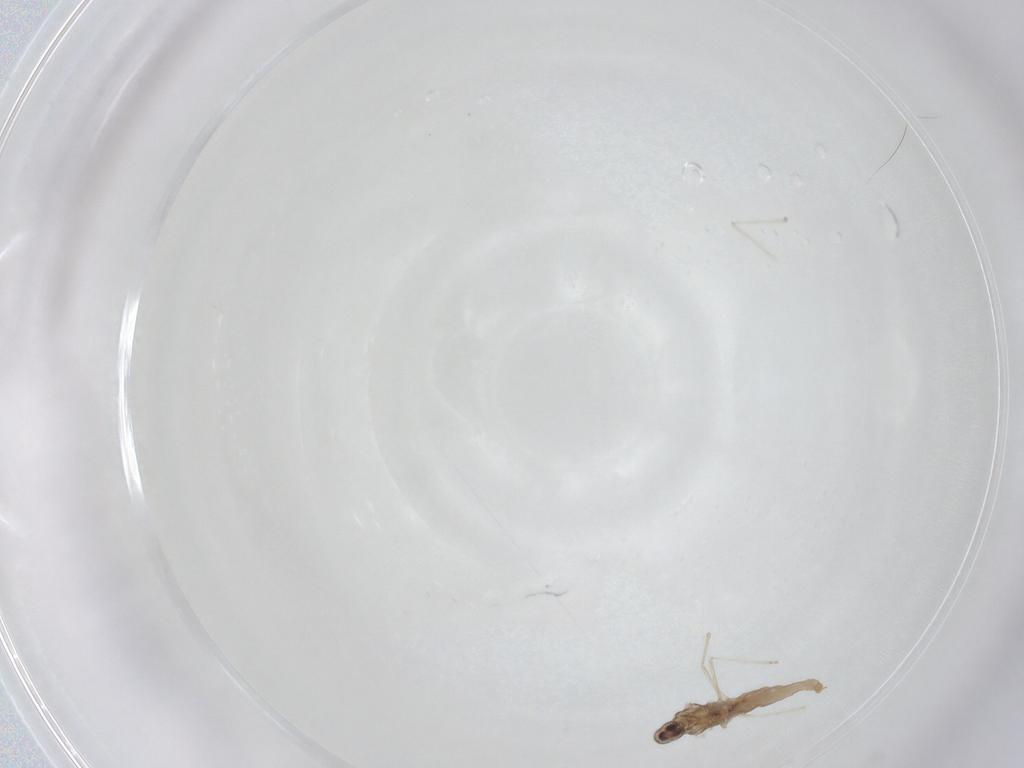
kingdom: Animalia
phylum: Arthropoda
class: Insecta
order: Diptera
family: Cecidomyiidae
